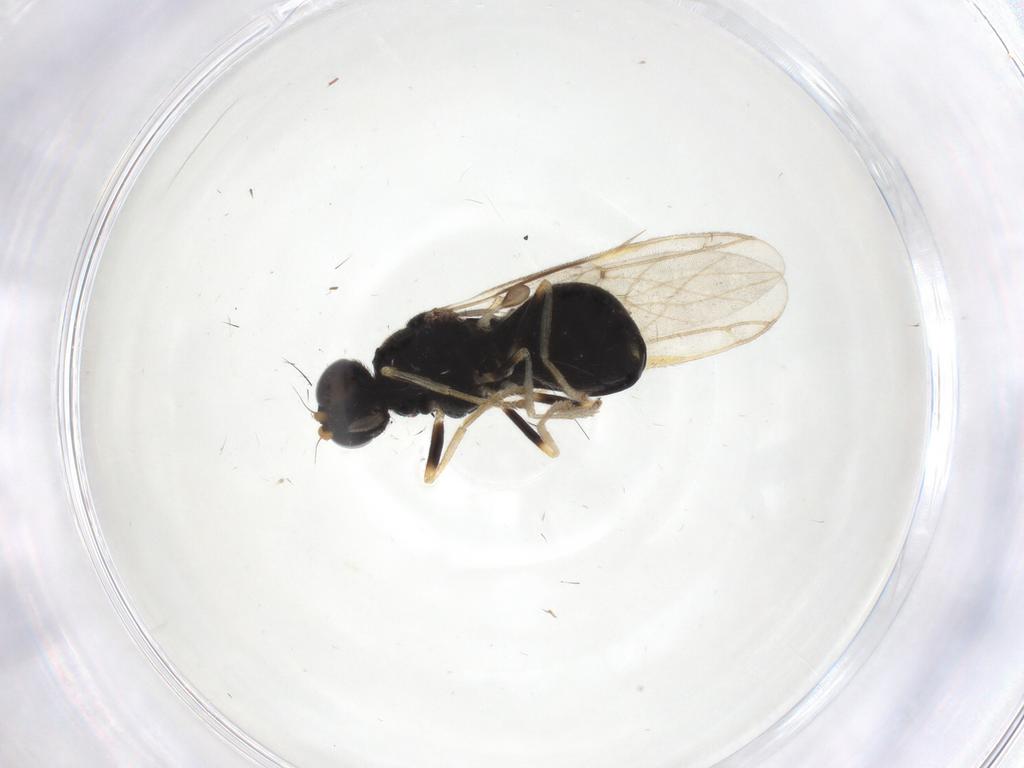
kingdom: Animalia
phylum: Arthropoda
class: Insecta
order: Diptera
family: Stratiomyidae
